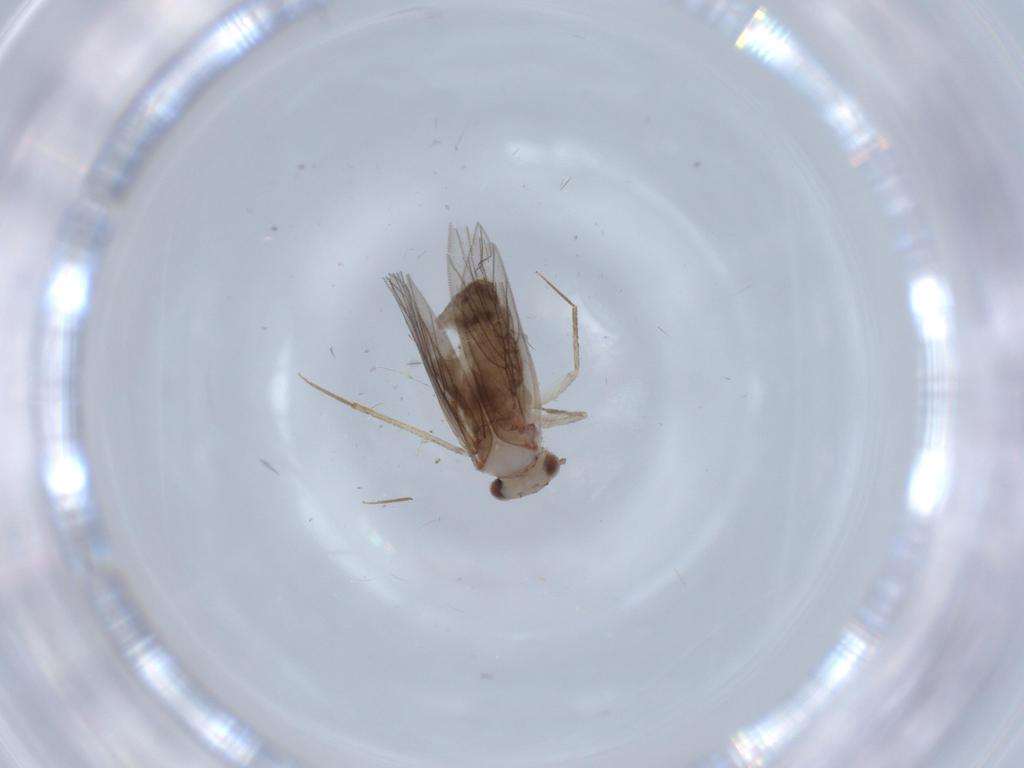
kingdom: Animalia
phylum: Arthropoda
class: Insecta
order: Psocodea
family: Lepidopsocidae
